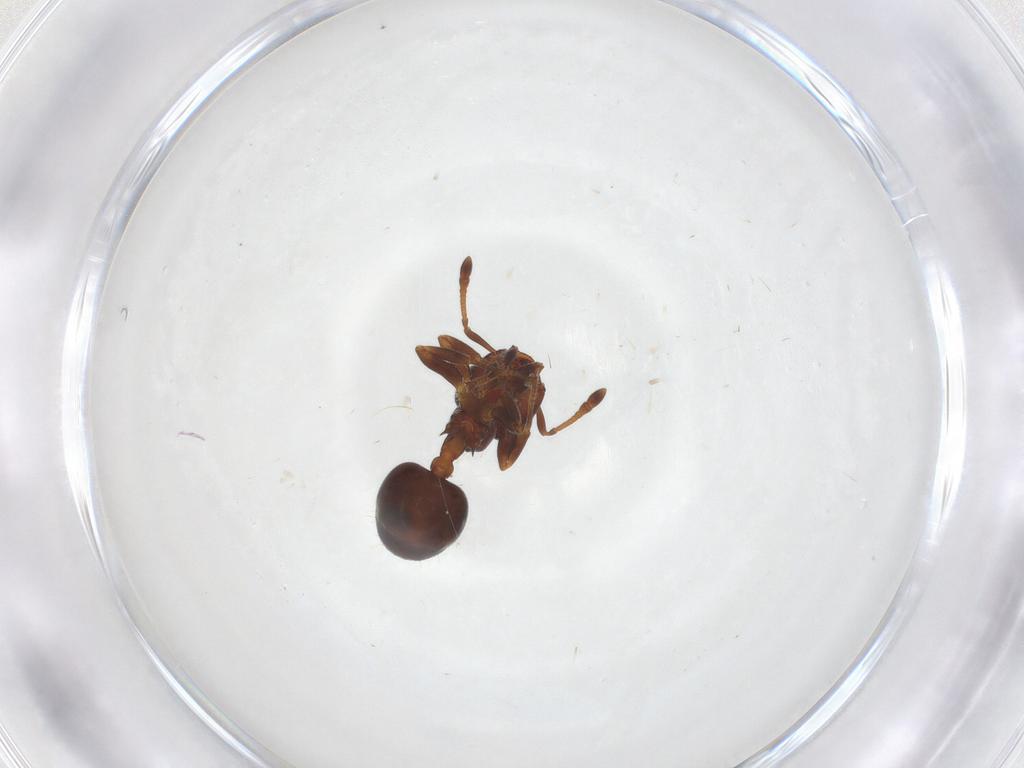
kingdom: Animalia
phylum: Arthropoda
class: Insecta
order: Hymenoptera
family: Formicidae
